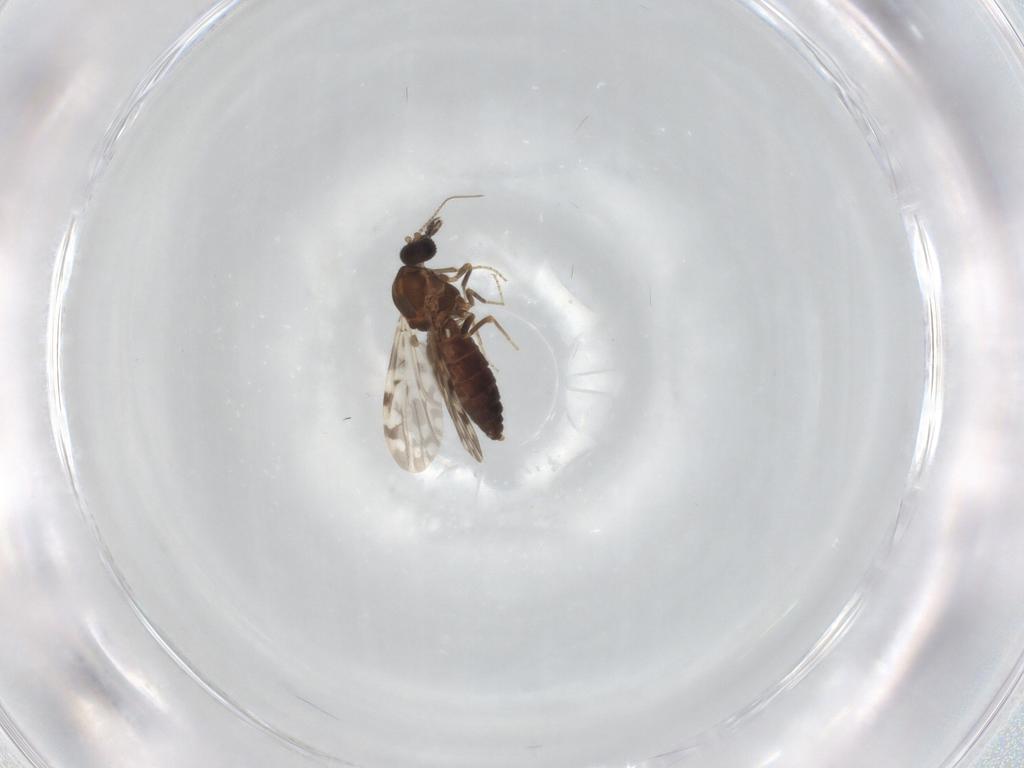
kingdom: Animalia
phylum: Arthropoda
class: Insecta
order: Diptera
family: Ceratopogonidae
